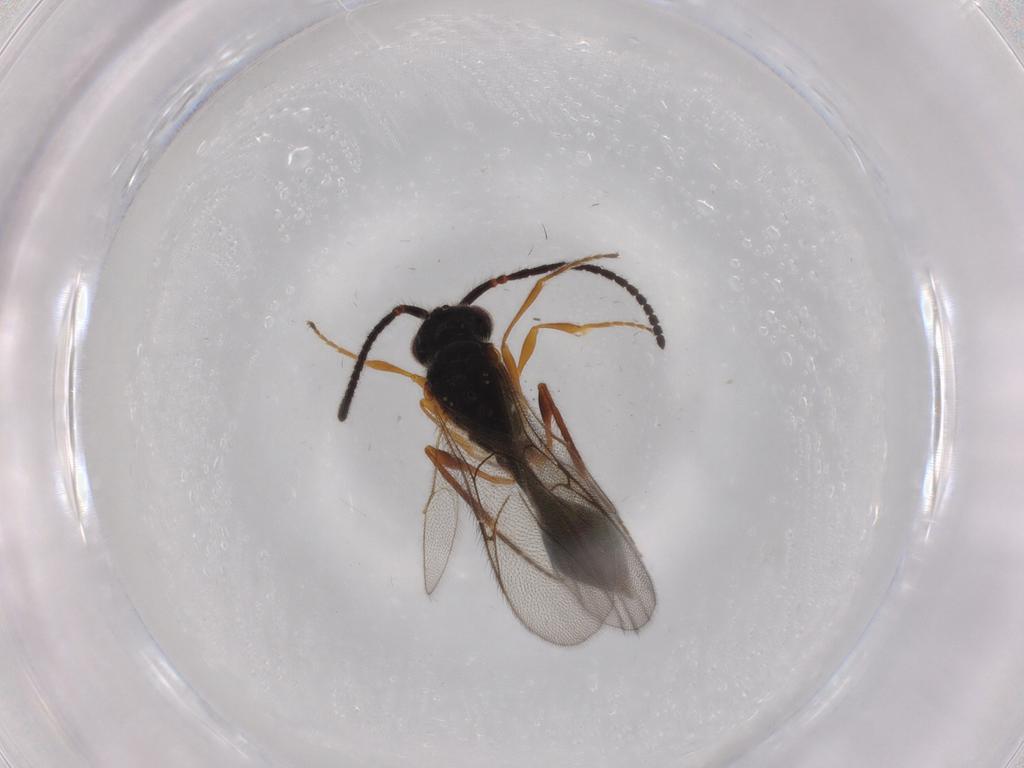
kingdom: Animalia
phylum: Arthropoda
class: Insecta
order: Hymenoptera
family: Diapriidae
